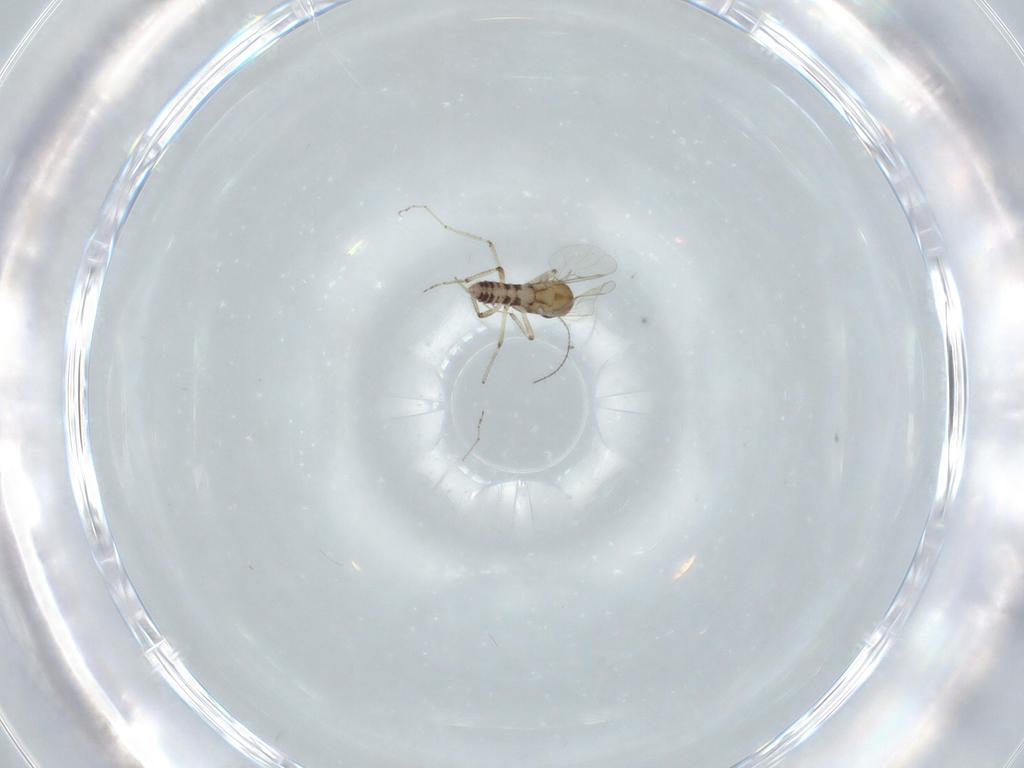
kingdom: Animalia
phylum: Arthropoda
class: Insecta
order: Diptera
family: Ceratopogonidae
